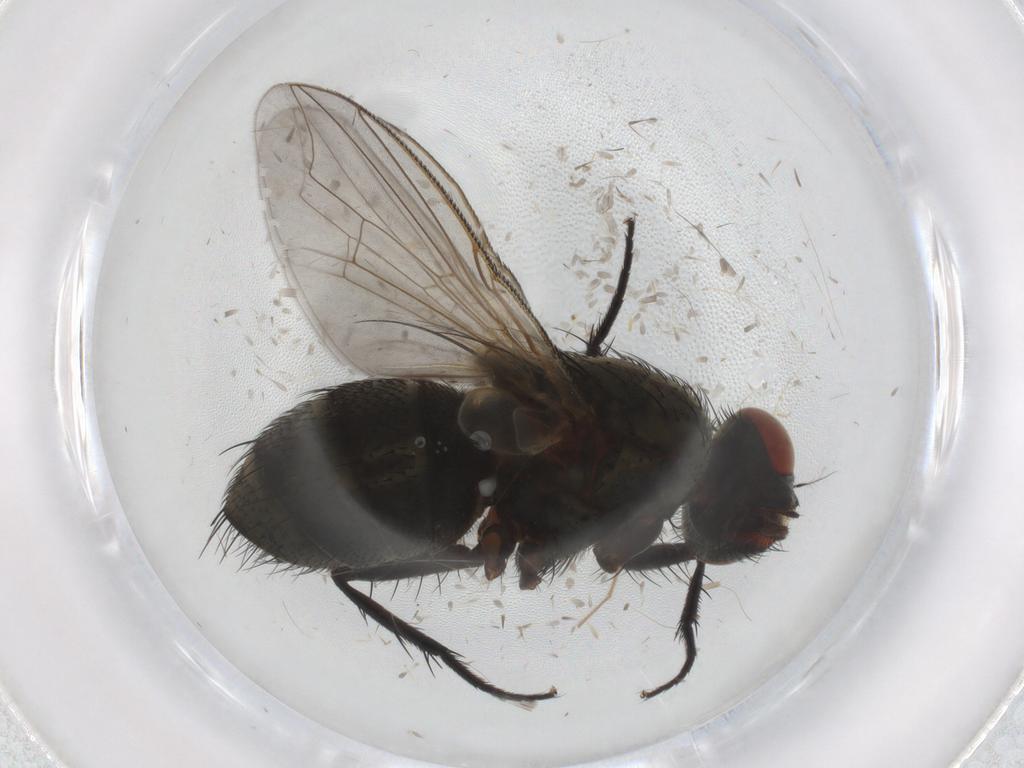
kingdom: Animalia
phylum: Arthropoda
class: Insecta
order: Diptera
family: Sarcophagidae
